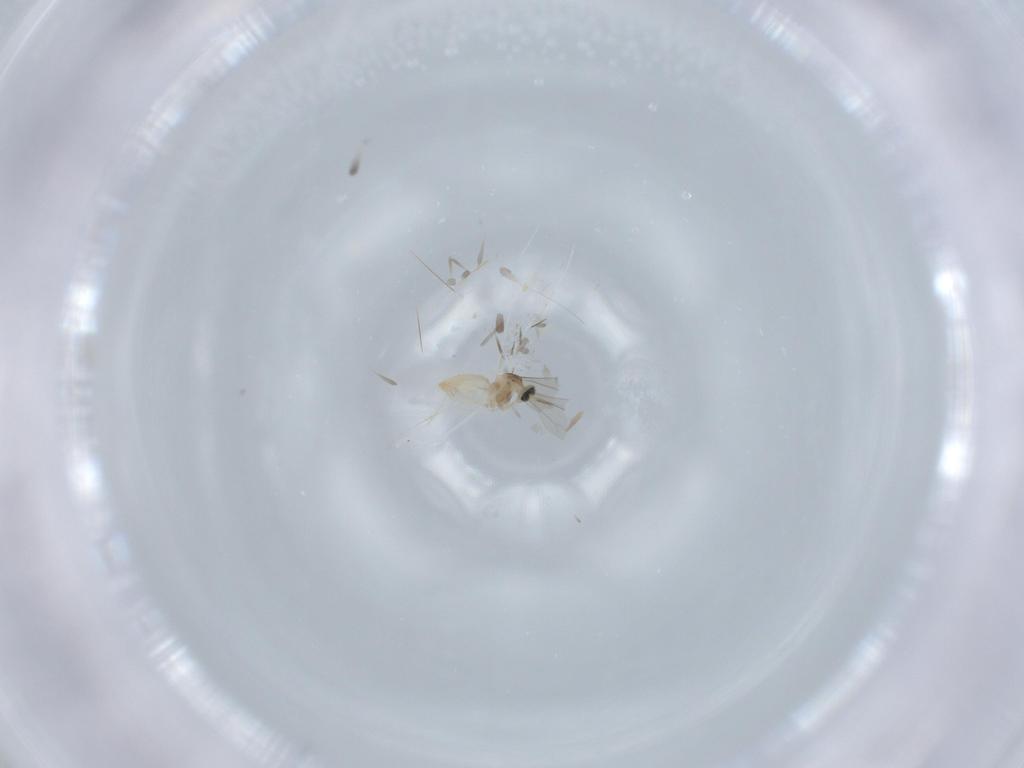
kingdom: Animalia
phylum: Arthropoda
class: Insecta
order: Diptera
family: Cecidomyiidae
